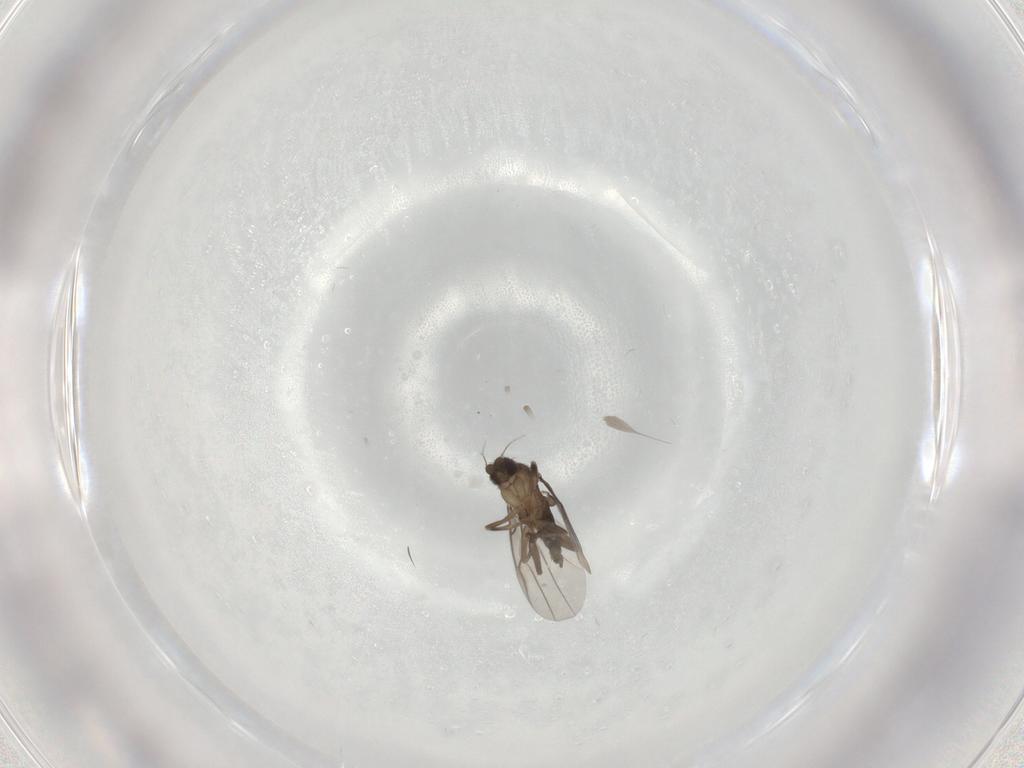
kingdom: Animalia
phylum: Arthropoda
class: Insecta
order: Diptera
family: Phoridae
